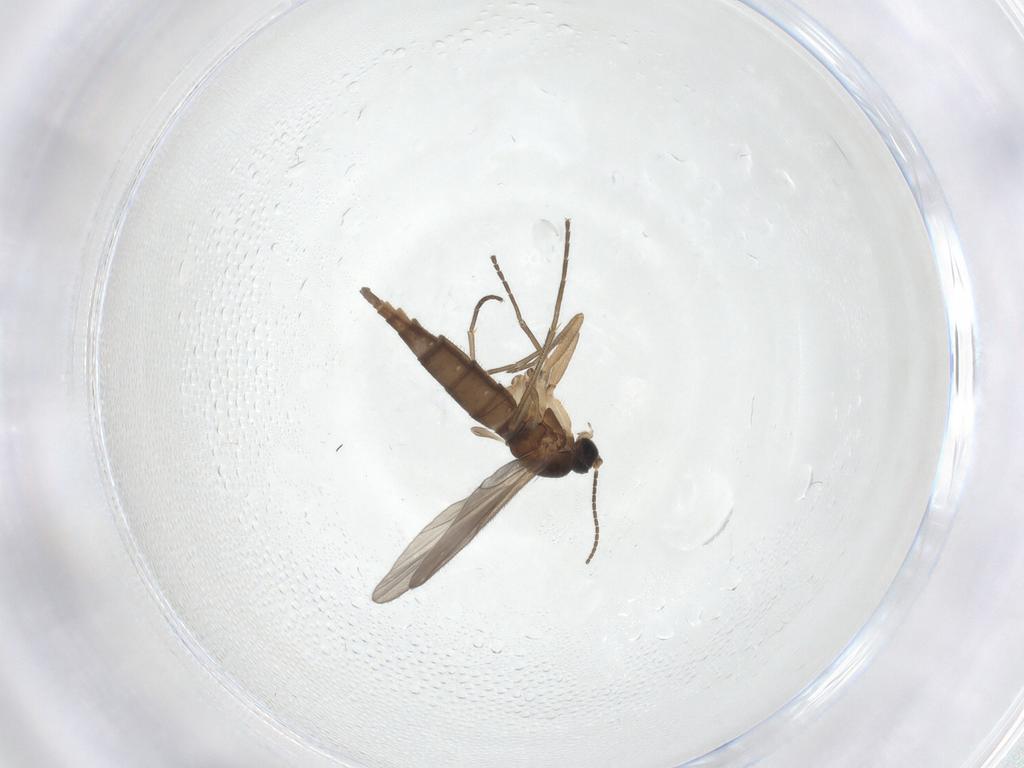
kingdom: Animalia
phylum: Arthropoda
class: Insecta
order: Diptera
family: Sciaridae
